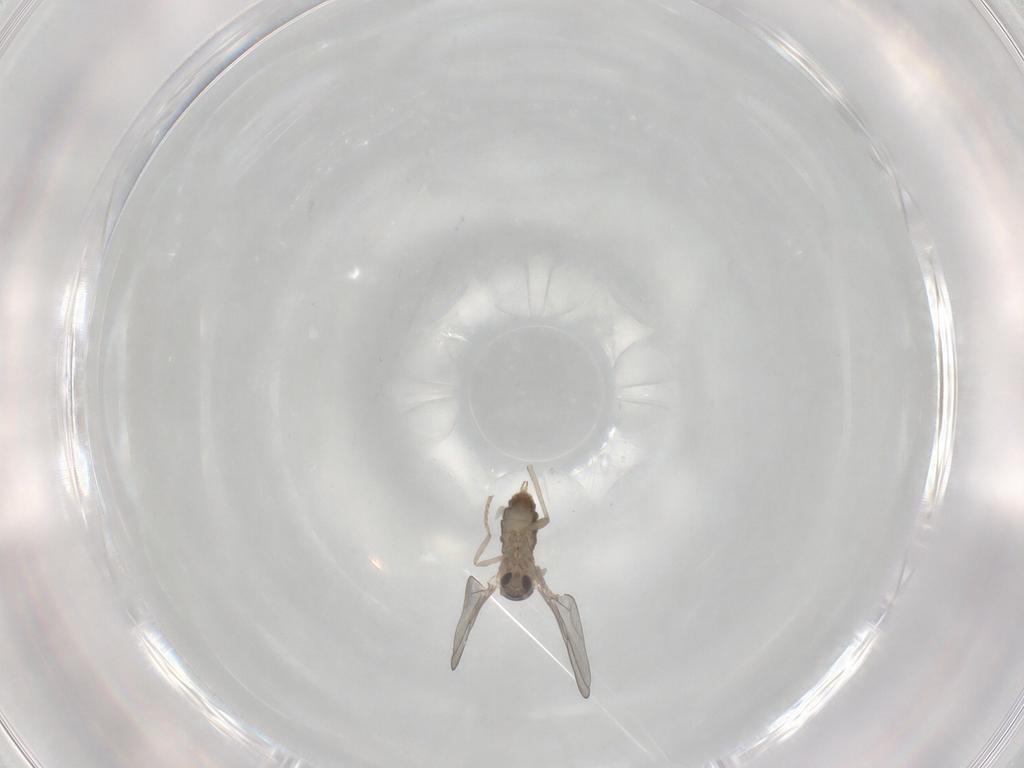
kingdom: Animalia
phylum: Arthropoda
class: Insecta
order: Diptera
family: Cecidomyiidae
